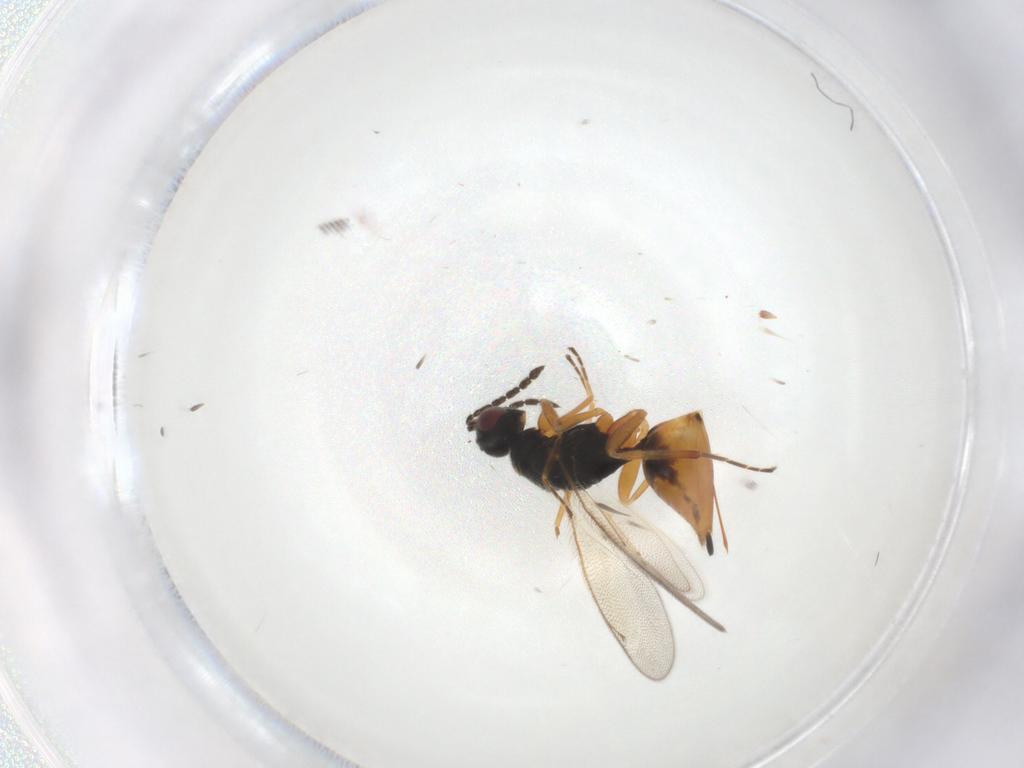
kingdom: Animalia
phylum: Arthropoda
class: Insecta
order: Hymenoptera
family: Eulophidae
